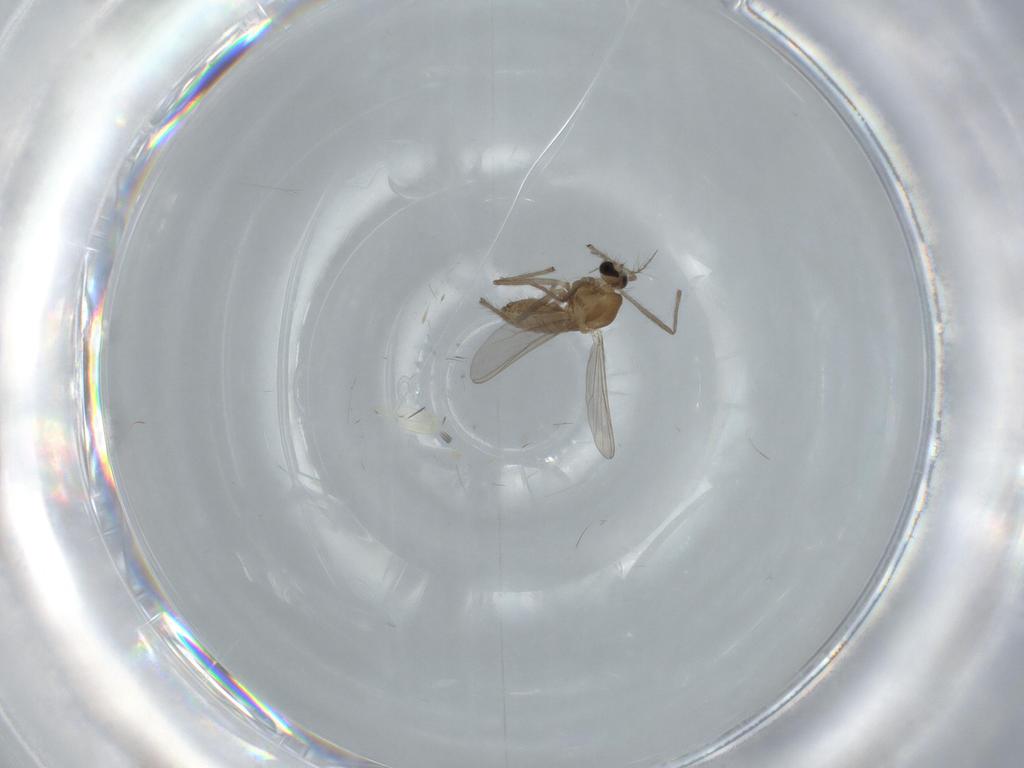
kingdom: Animalia
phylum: Arthropoda
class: Insecta
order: Diptera
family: Chironomidae
